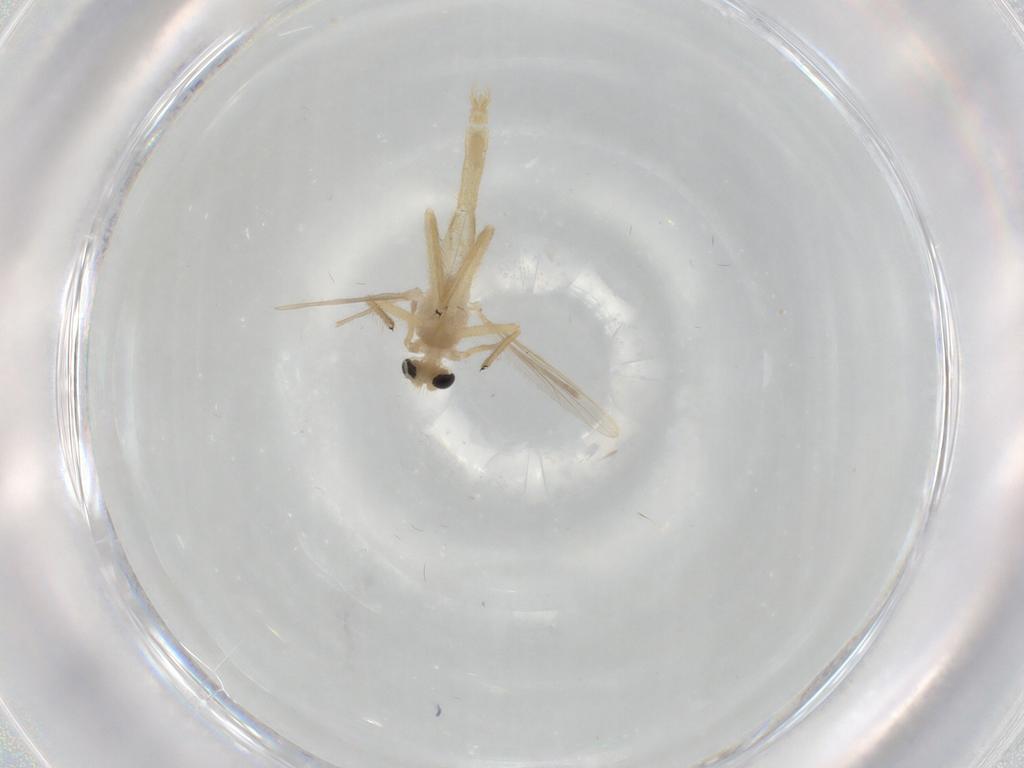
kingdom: Animalia
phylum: Arthropoda
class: Insecta
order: Diptera
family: Chironomidae
